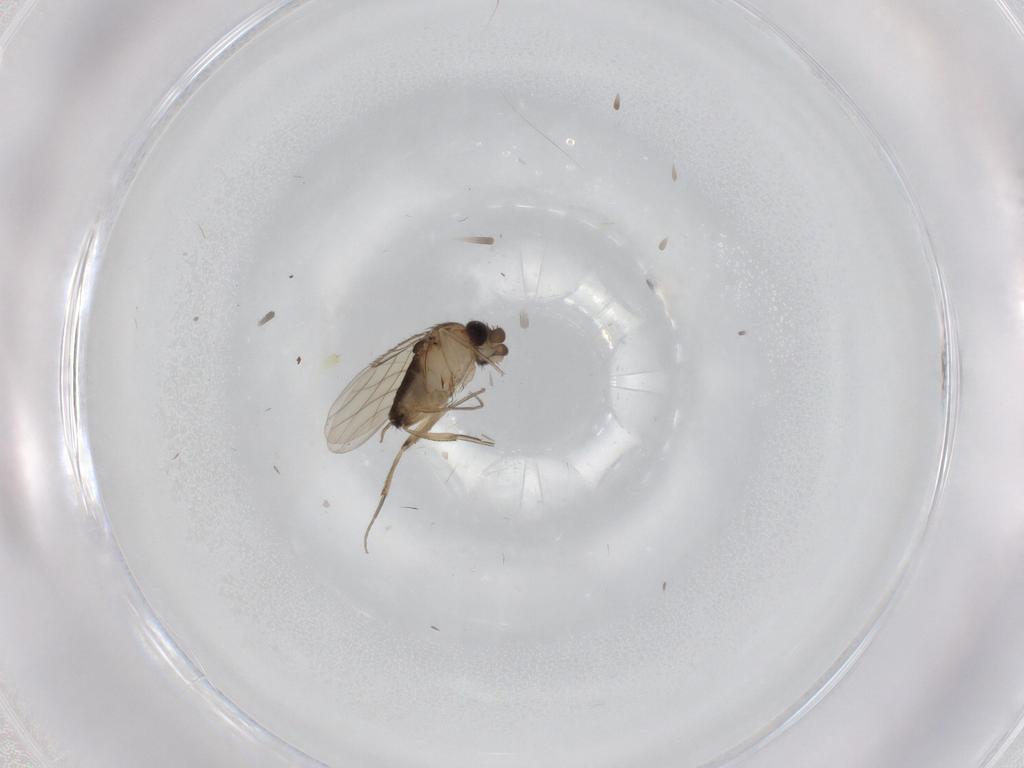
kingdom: Animalia
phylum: Arthropoda
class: Insecta
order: Diptera
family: Phoridae
